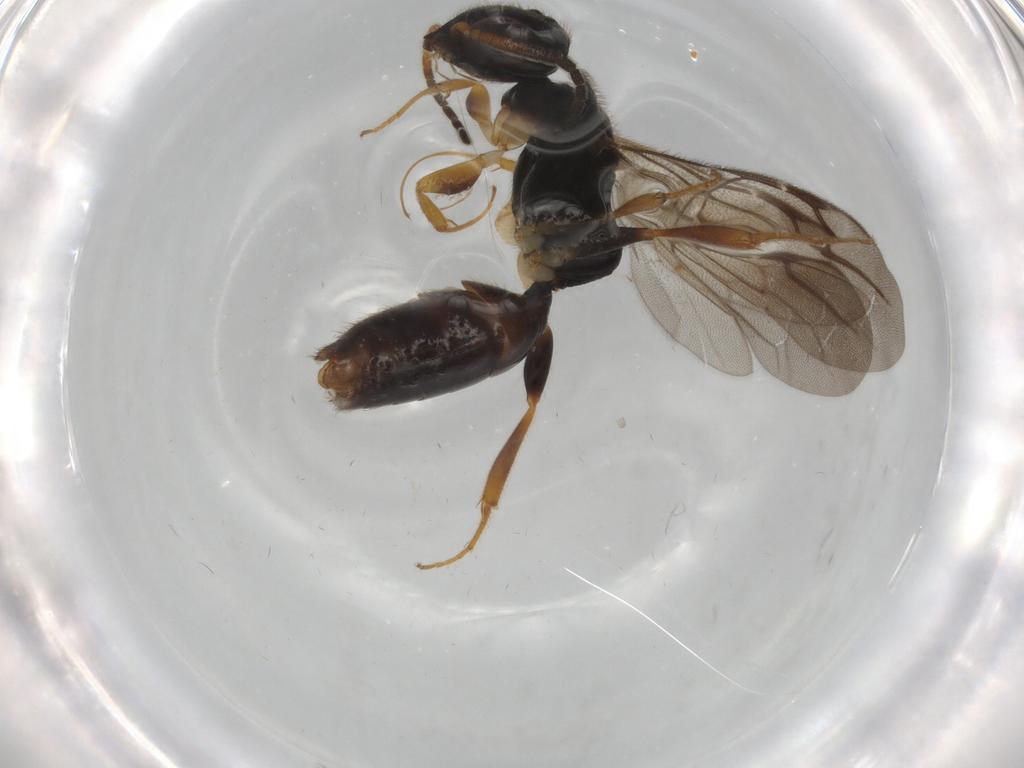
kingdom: Animalia
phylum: Arthropoda
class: Insecta
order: Hymenoptera
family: Bethylidae
